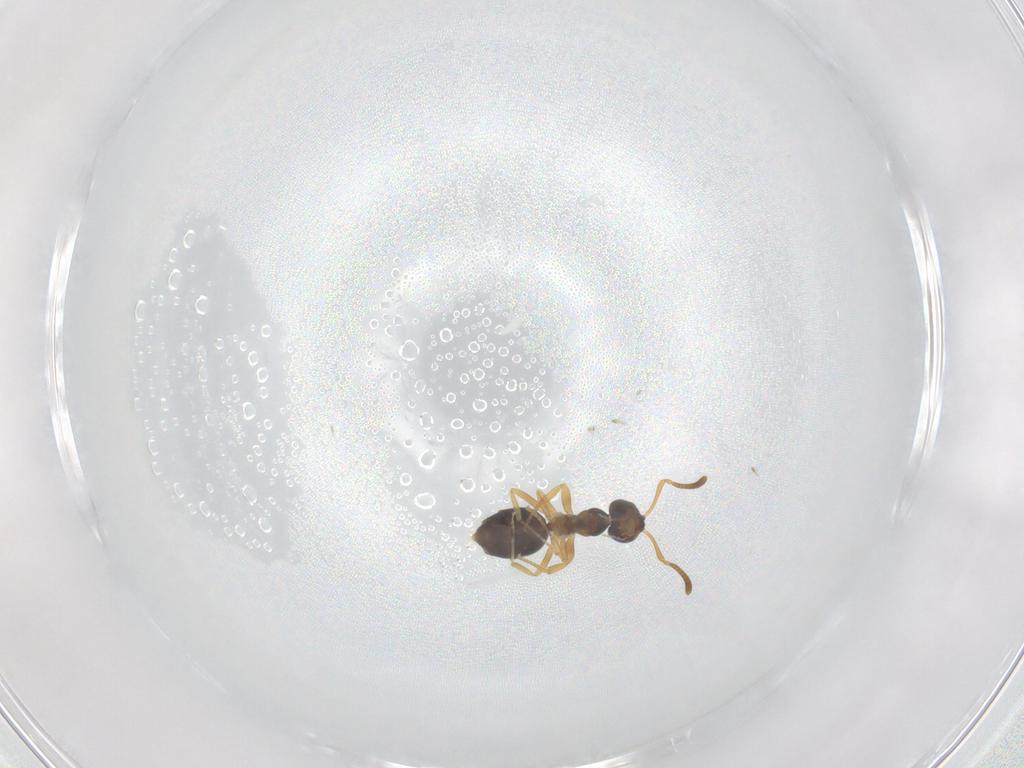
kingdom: Animalia
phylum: Arthropoda
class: Insecta
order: Hymenoptera
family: Formicidae
